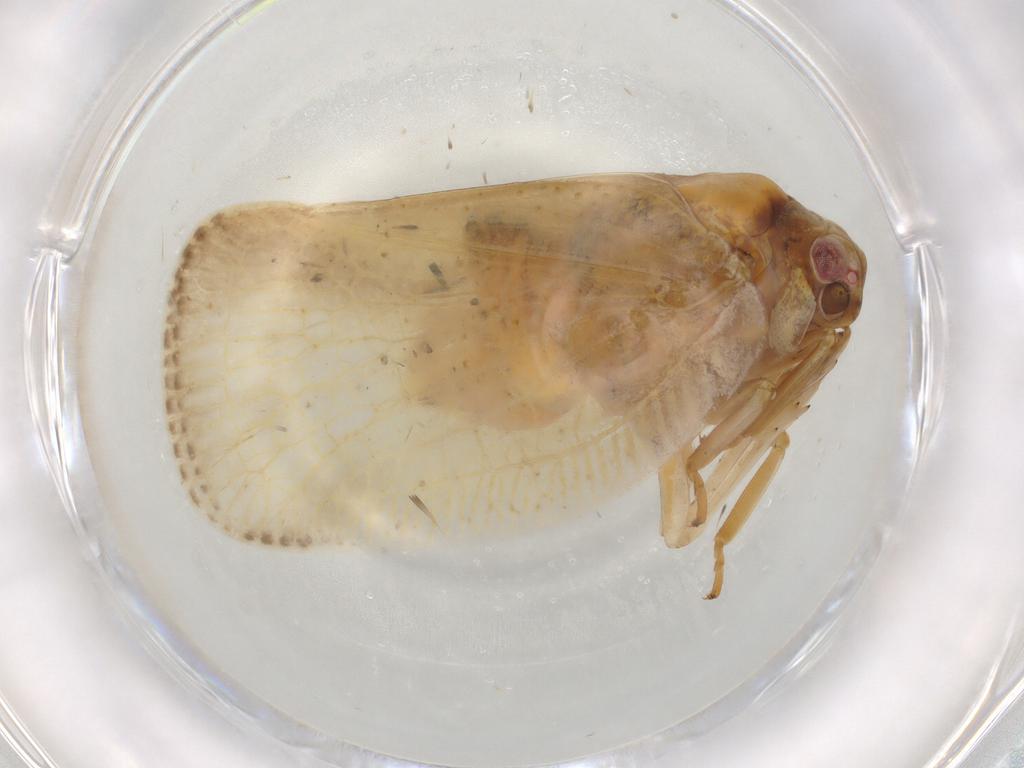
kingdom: Animalia
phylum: Arthropoda
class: Insecta
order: Hemiptera
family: Flatidae
